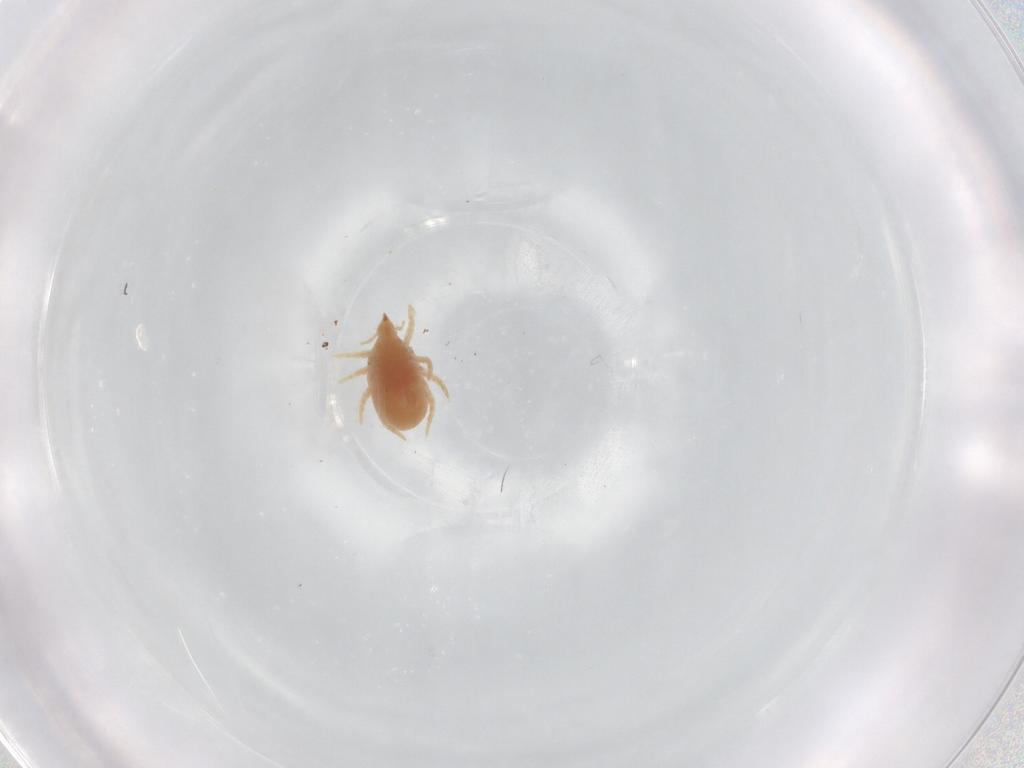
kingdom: Animalia
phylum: Arthropoda
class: Arachnida
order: Trombidiformes
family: Bdellidae
